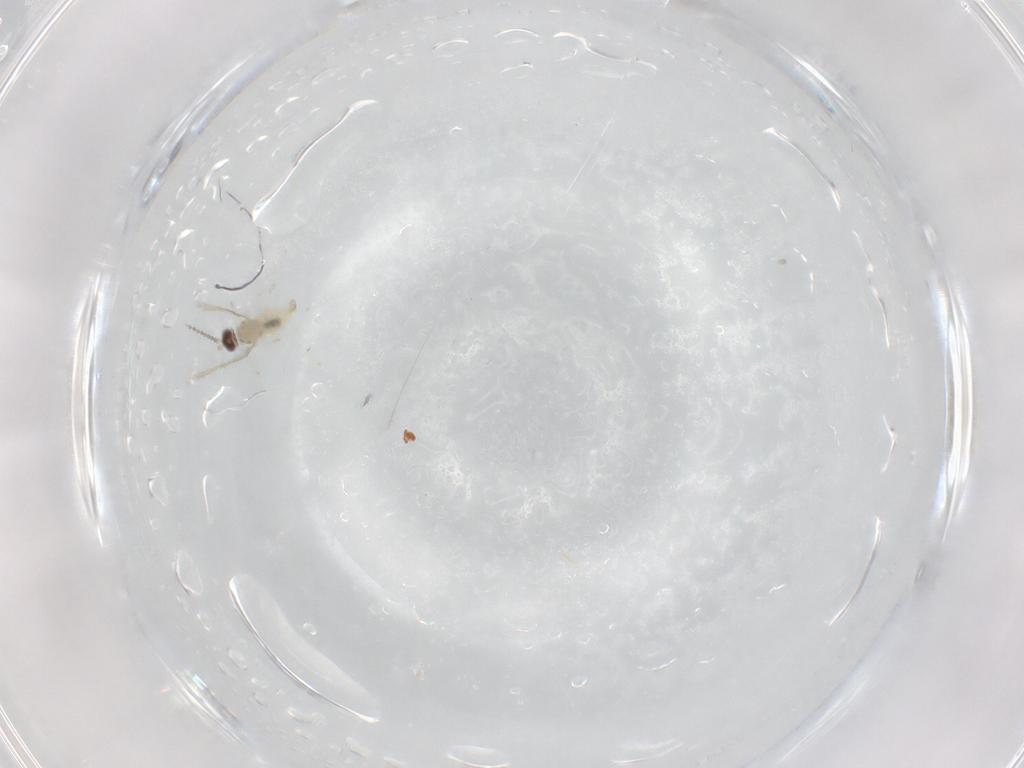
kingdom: Animalia
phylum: Arthropoda
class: Insecta
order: Diptera
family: Cecidomyiidae
